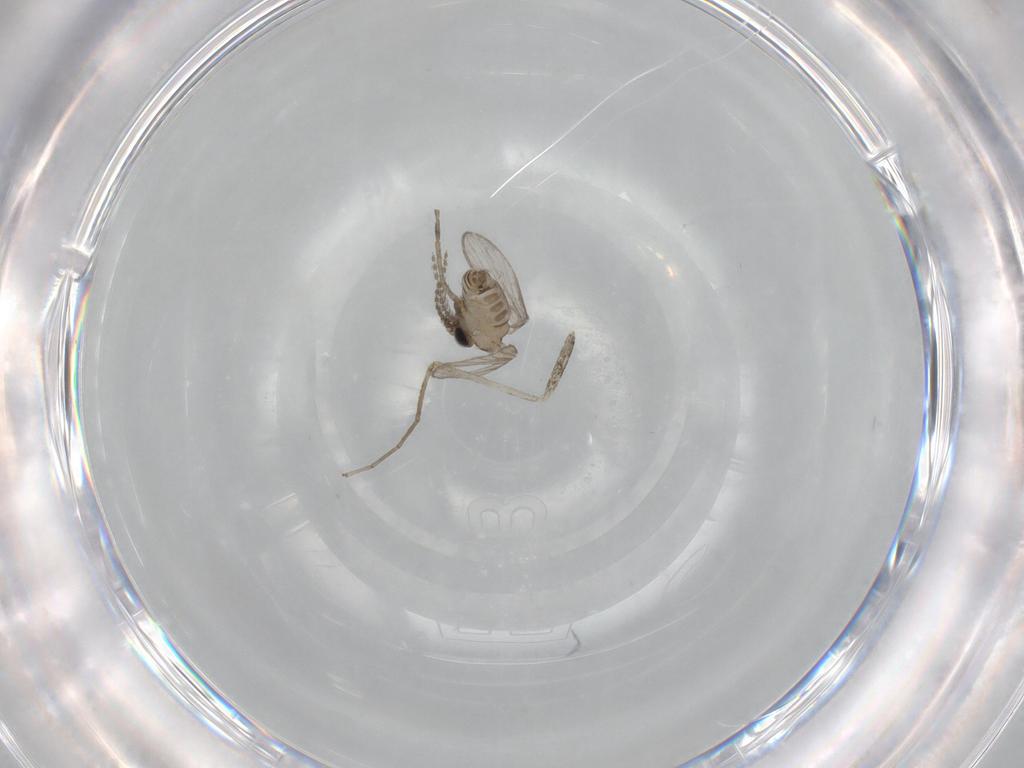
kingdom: Animalia
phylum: Arthropoda
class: Insecta
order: Diptera
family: Cecidomyiidae
